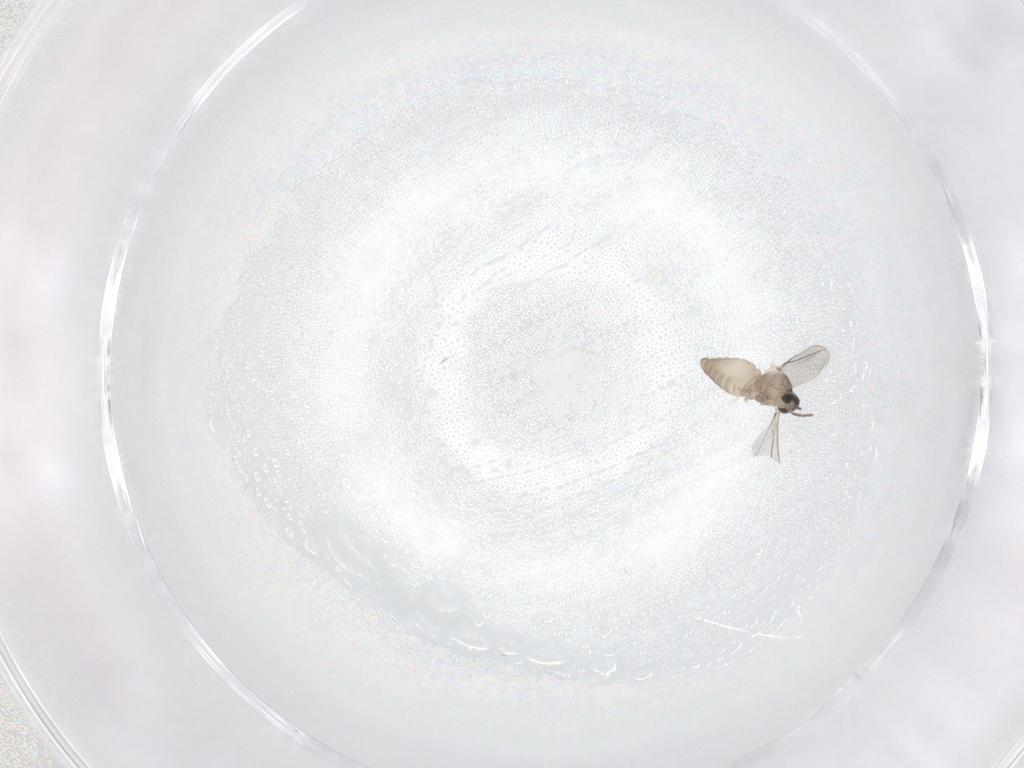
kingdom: Animalia
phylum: Arthropoda
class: Insecta
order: Diptera
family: Cecidomyiidae
